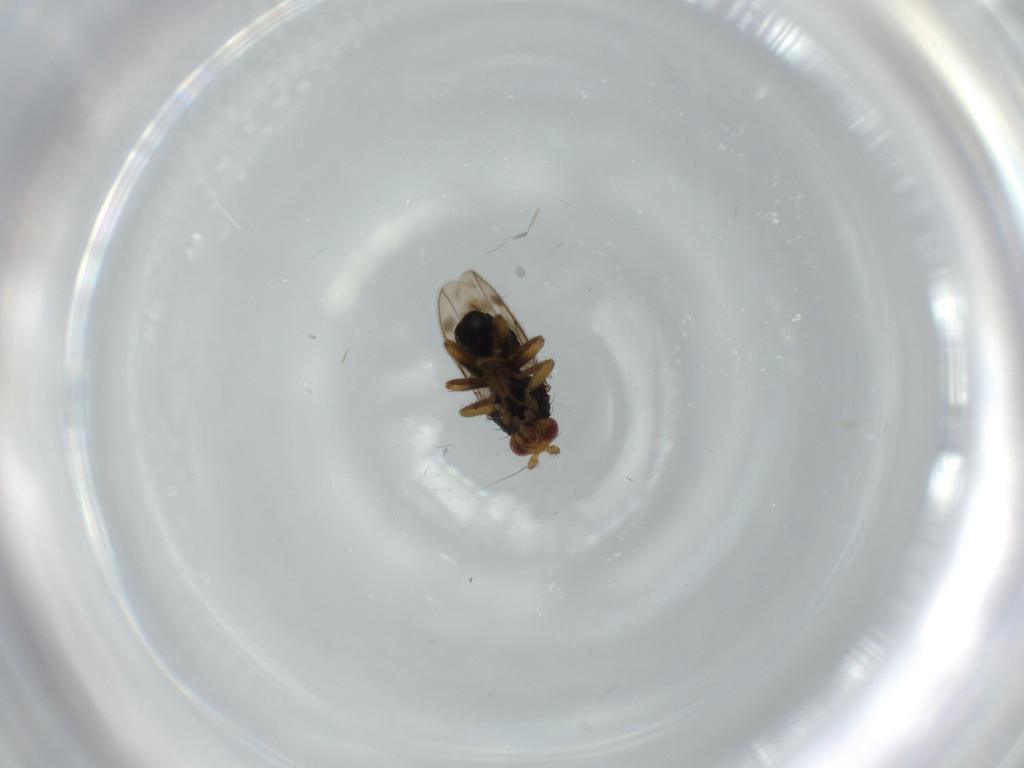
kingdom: Animalia
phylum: Arthropoda
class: Insecta
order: Diptera
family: Sphaeroceridae
